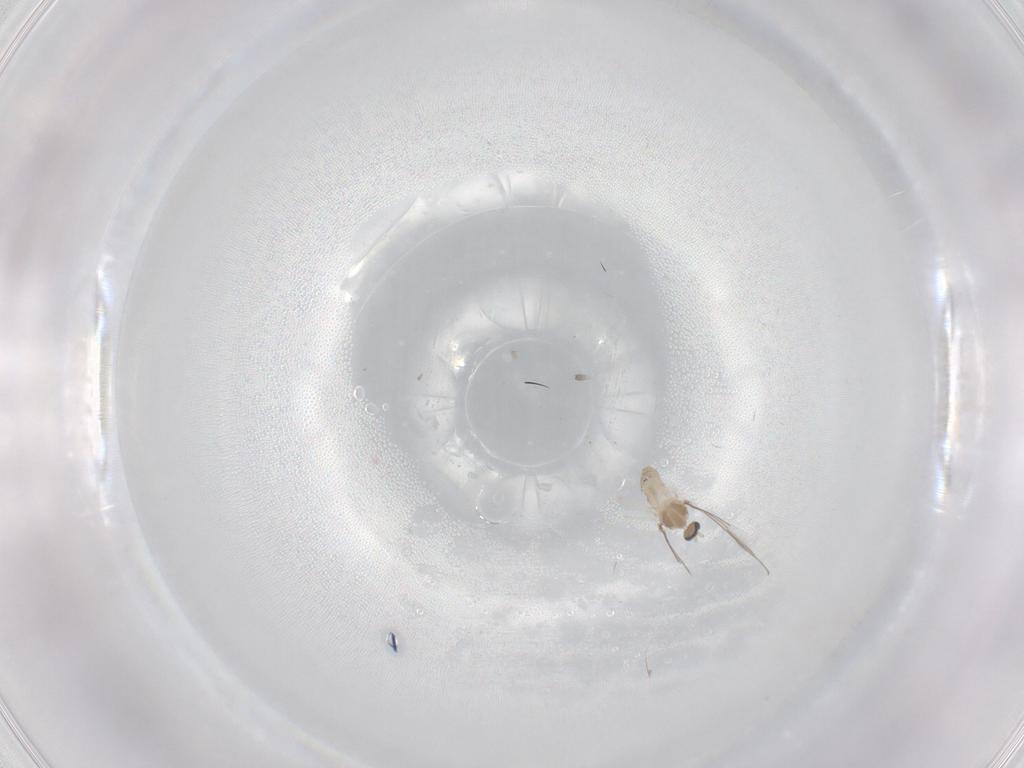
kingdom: Animalia
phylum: Arthropoda
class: Insecta
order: Diptera
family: Cecidomyiidae
